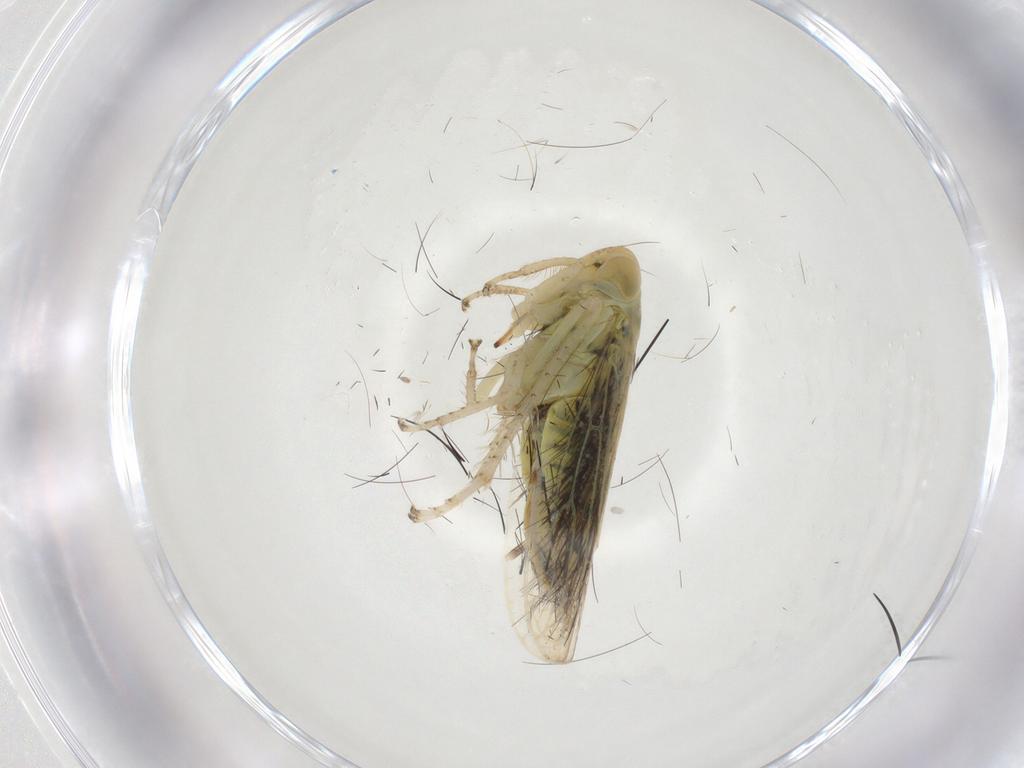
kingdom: Animalia
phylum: Arthropoda
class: Insecta
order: Hemiptera
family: Cicadellidae
